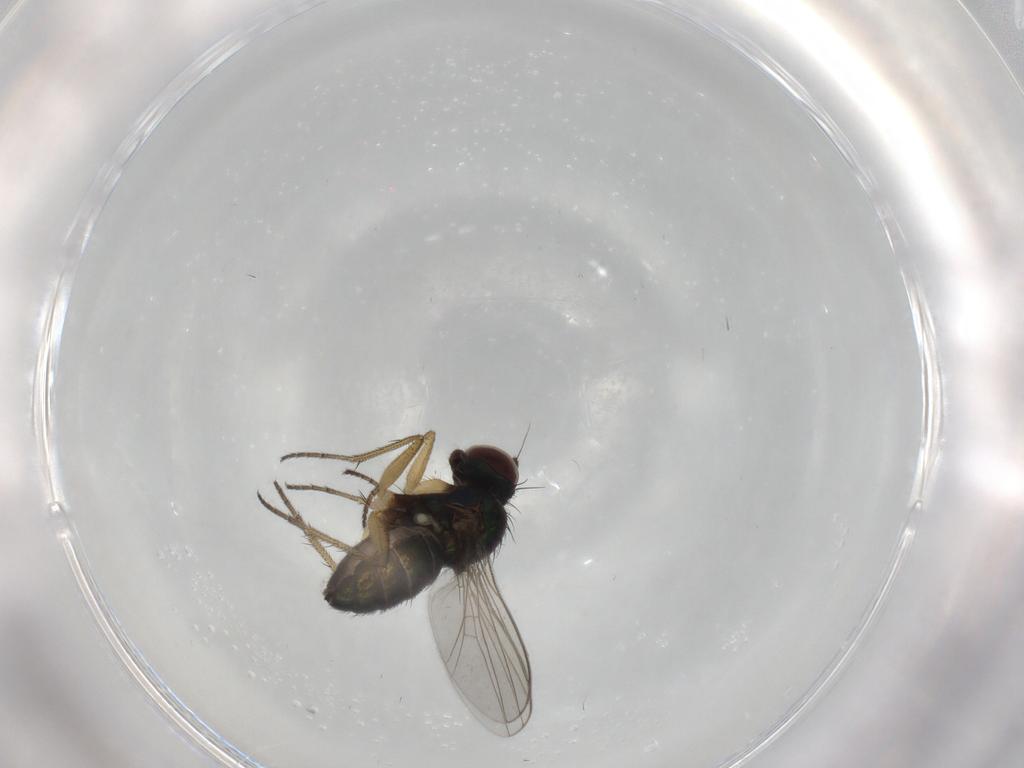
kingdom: Animalia
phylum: Arthropoda
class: Insecta
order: Diptera
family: Dolichopodidae
